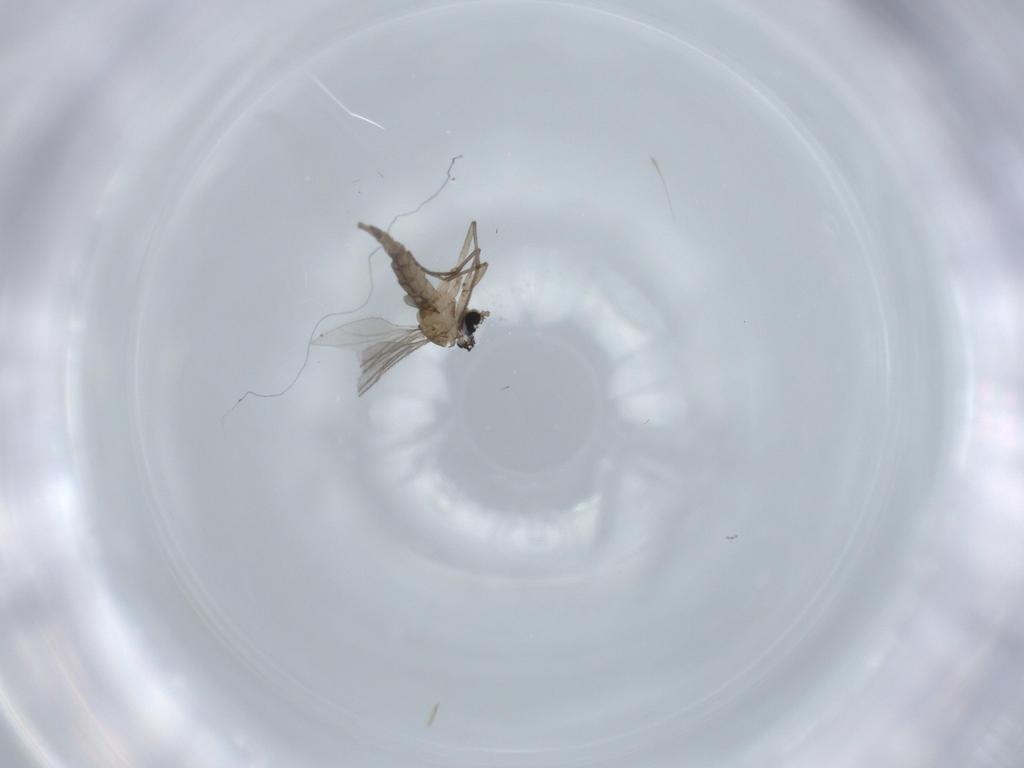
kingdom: Animalia
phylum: Arthropoda
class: Insecta
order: Diptera
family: Sciaridae
